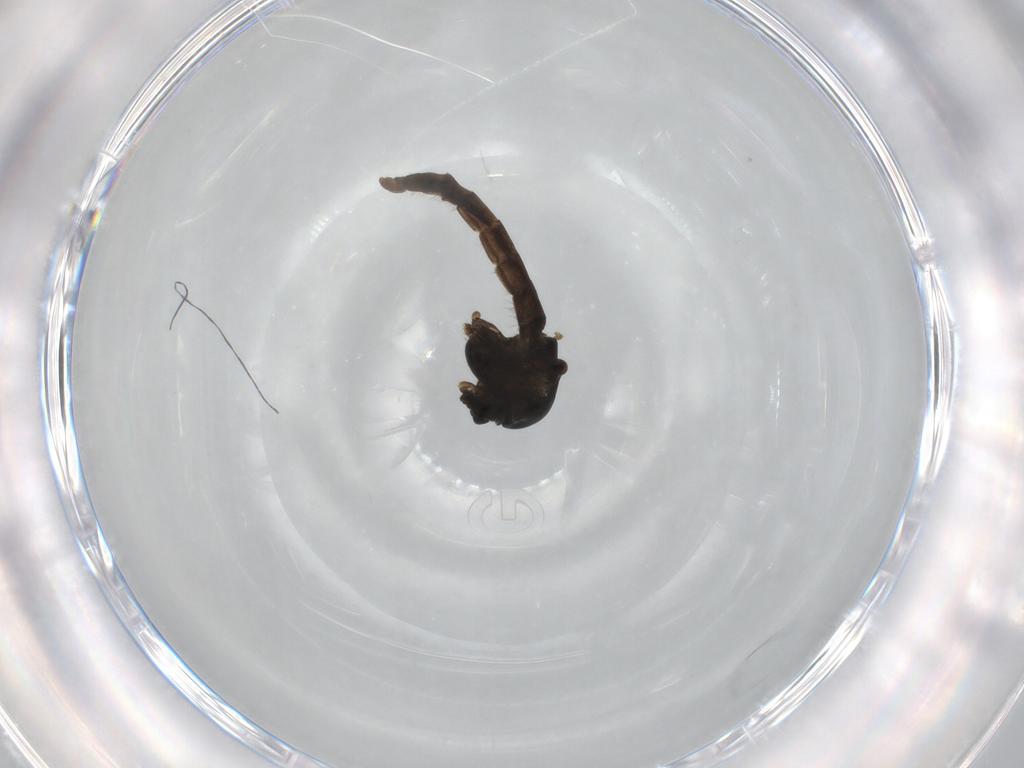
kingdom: Animalia
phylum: Arthropoda
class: Insecta
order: Diptera
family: Chironomidae
